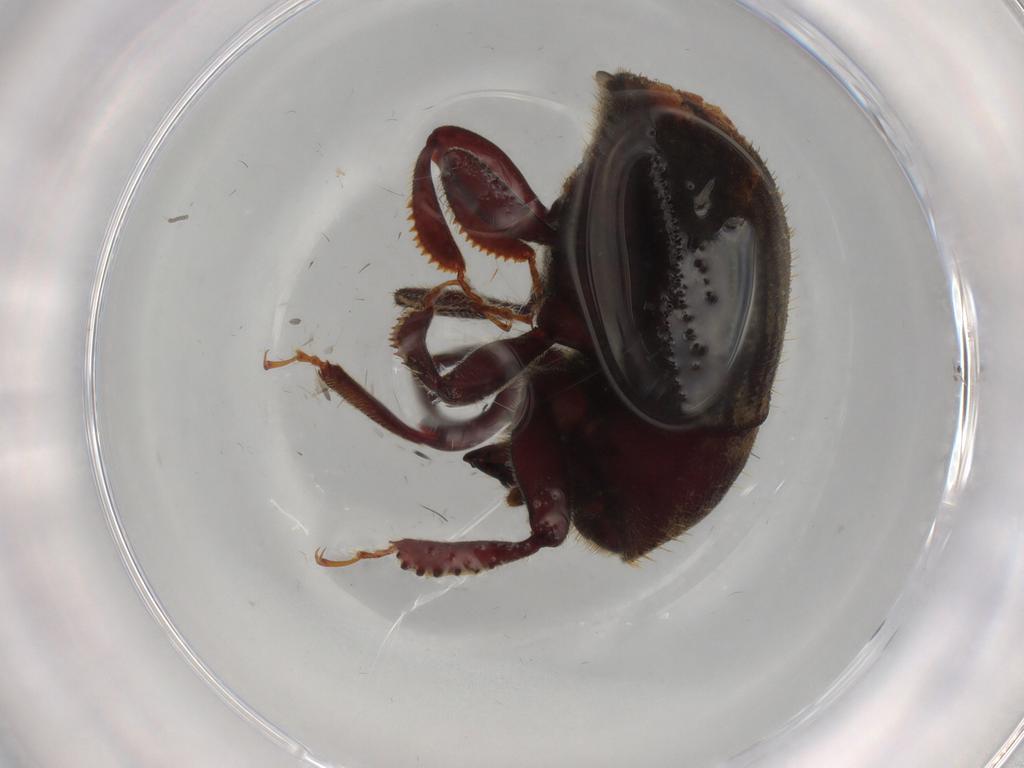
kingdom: Animalia
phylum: Arthropoda
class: Insecta
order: Coleoptera
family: Curculionidae
